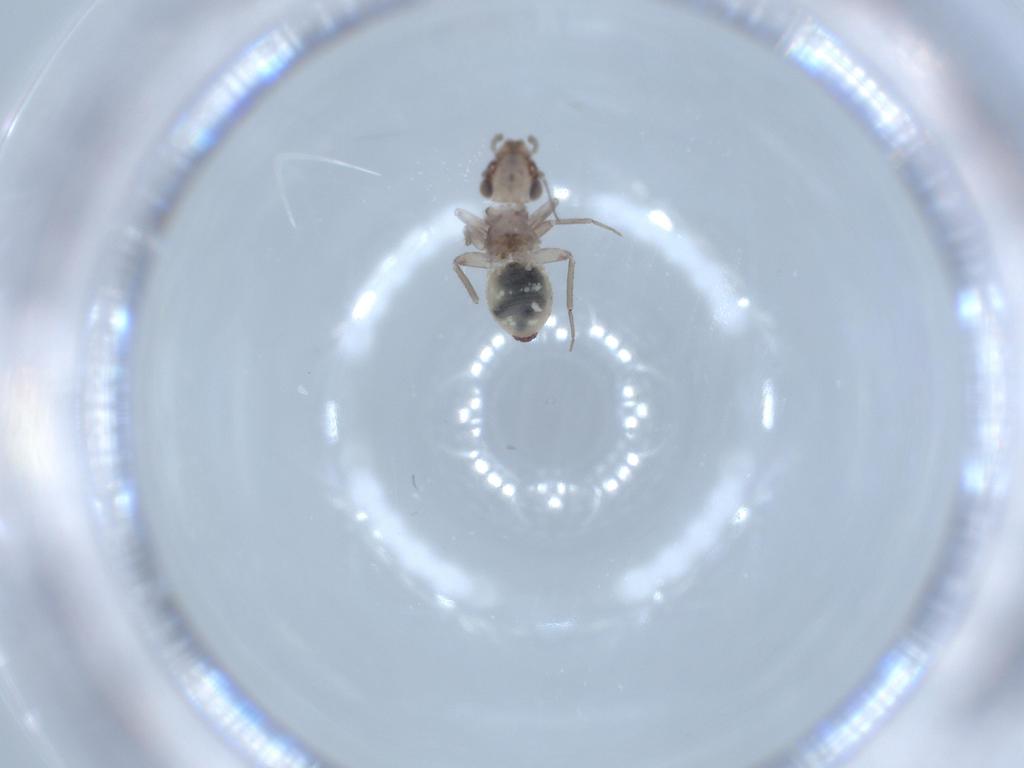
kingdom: Animalia
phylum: Arthropoda
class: Insecta
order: Psocodea
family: Lepidopsocidae
